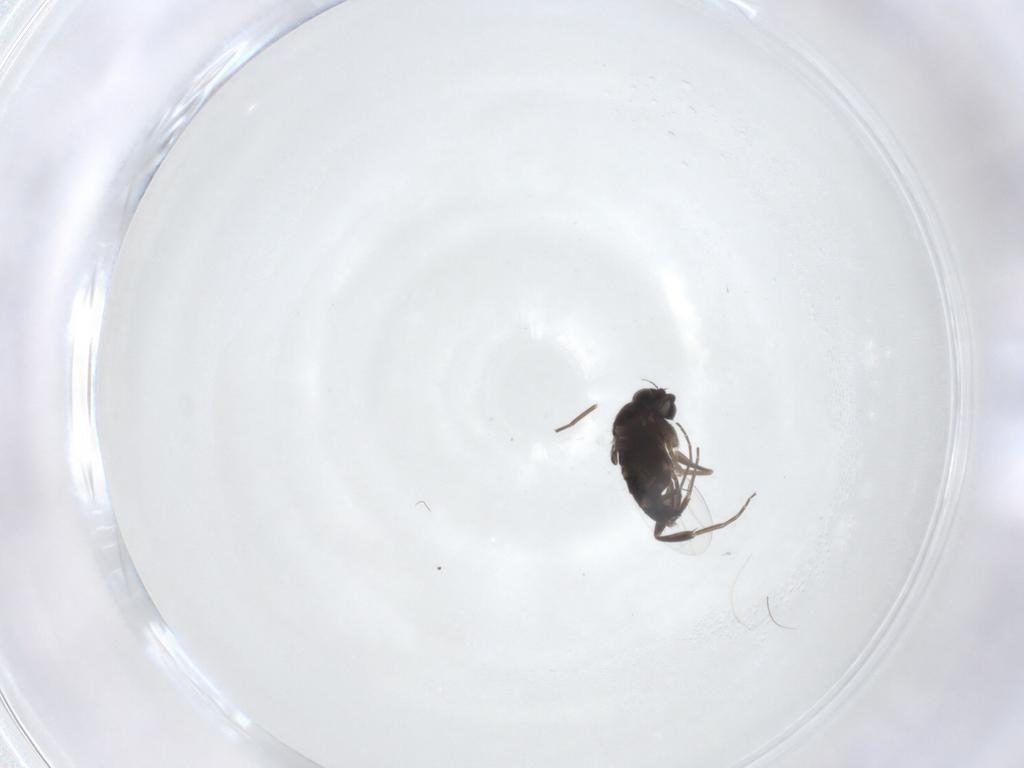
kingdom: Animalia
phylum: Arthropoda
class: Insecta
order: Diptera
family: Phoridae
